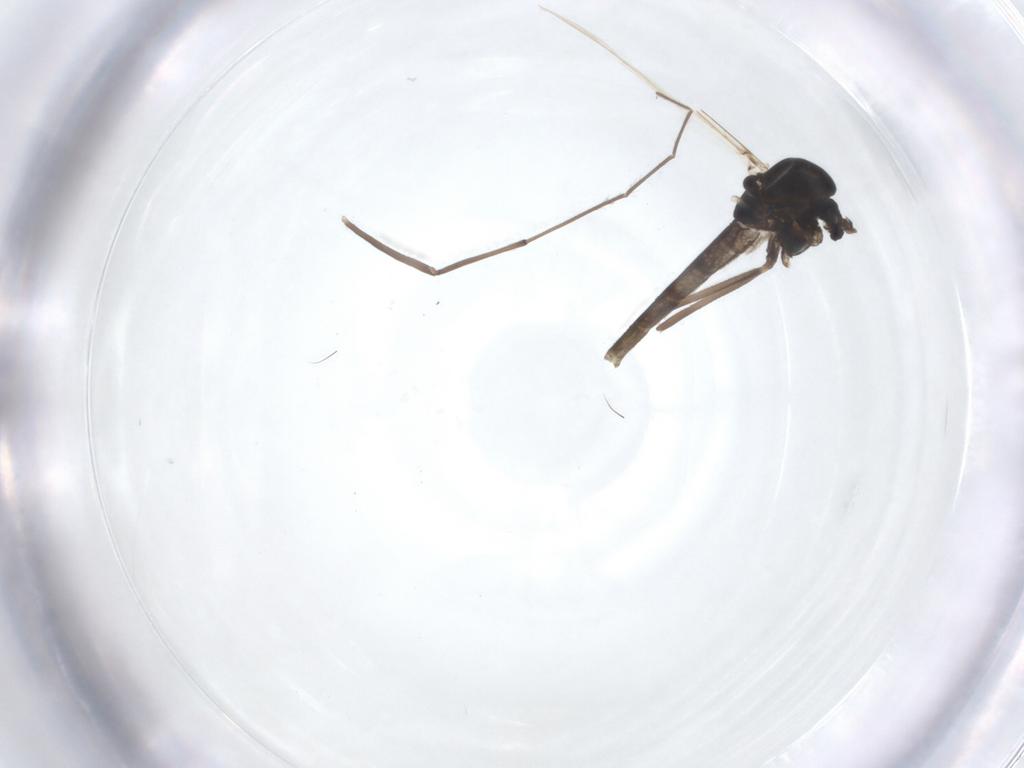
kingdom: Animalia
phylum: Arthropoda
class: Insecta
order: Diptera
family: Chironomidae
